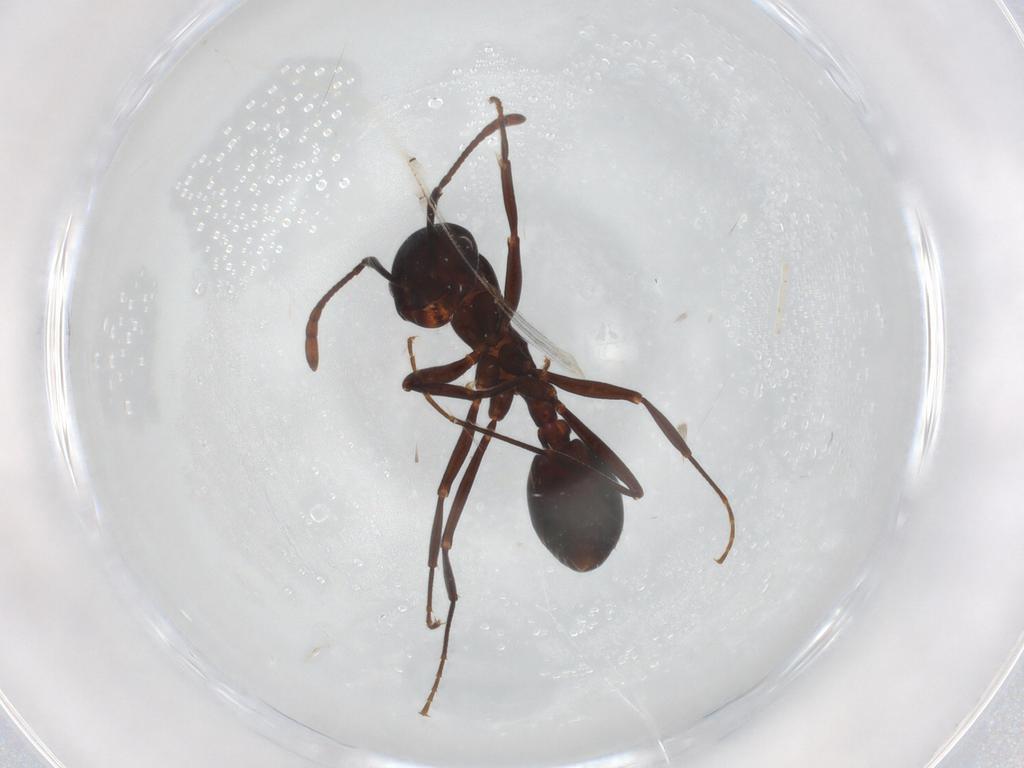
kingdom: Animalia
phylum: Arthropoda
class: Insecta
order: Hymenoptera
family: Formicidae
